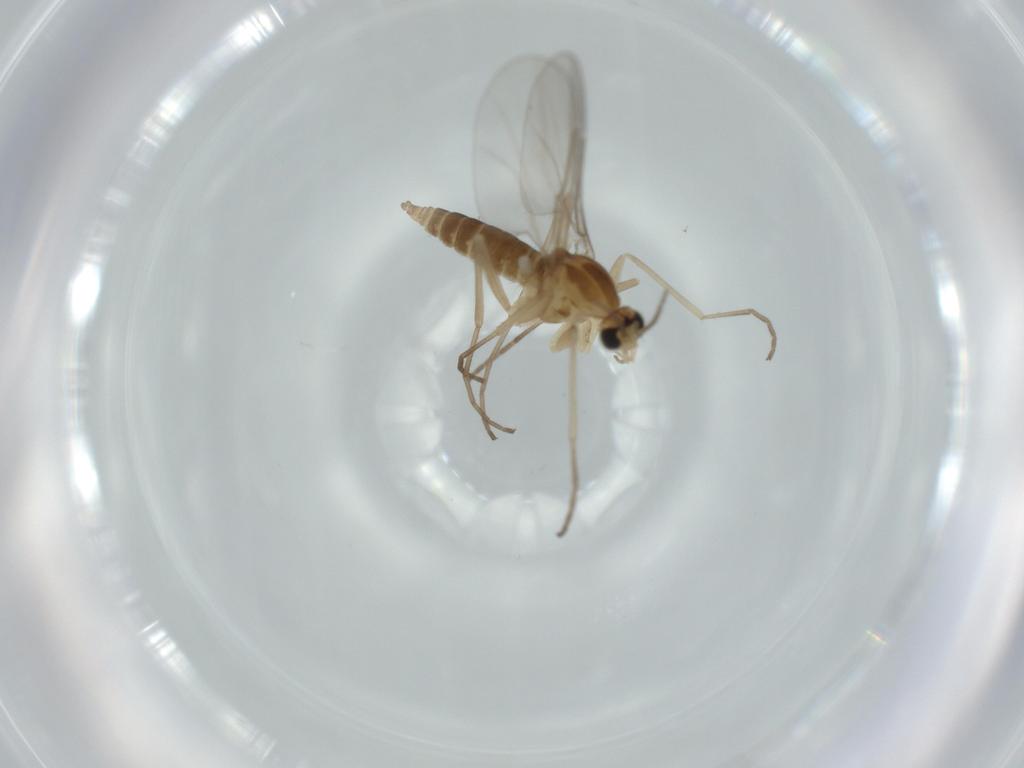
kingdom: Animalia
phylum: Arthropoda
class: Insecta
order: Diptera
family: Cecidomyiidae
